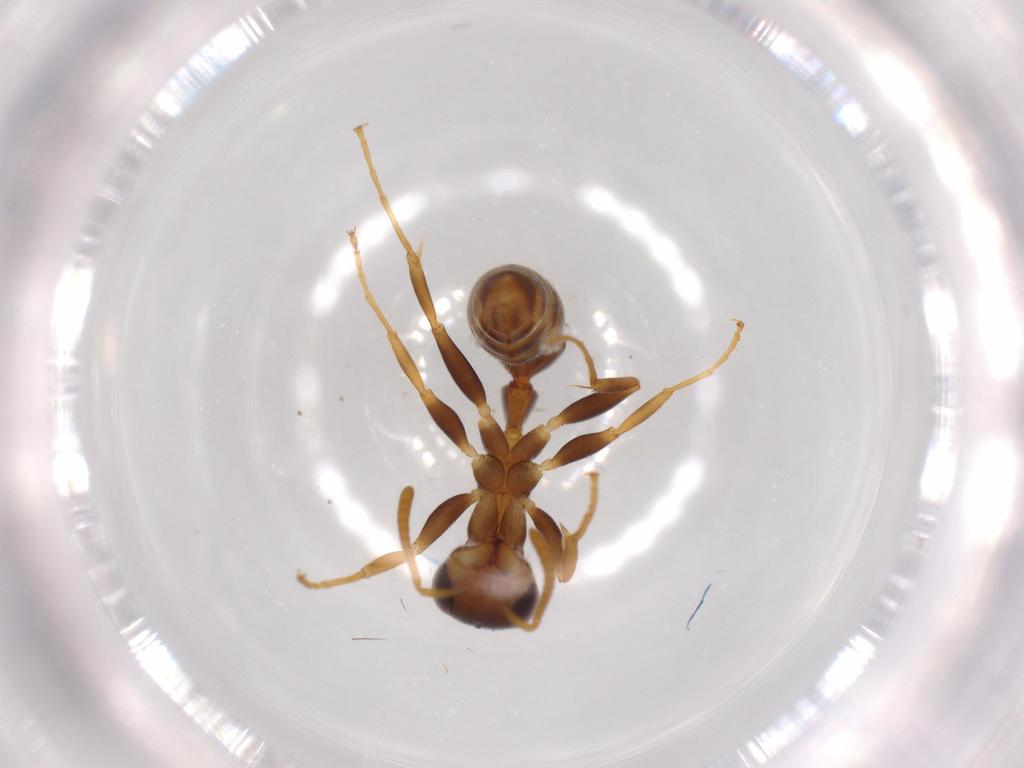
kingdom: Animalia
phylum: Arthropoda
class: Insecta
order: Hymenoptera
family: Formicidae
